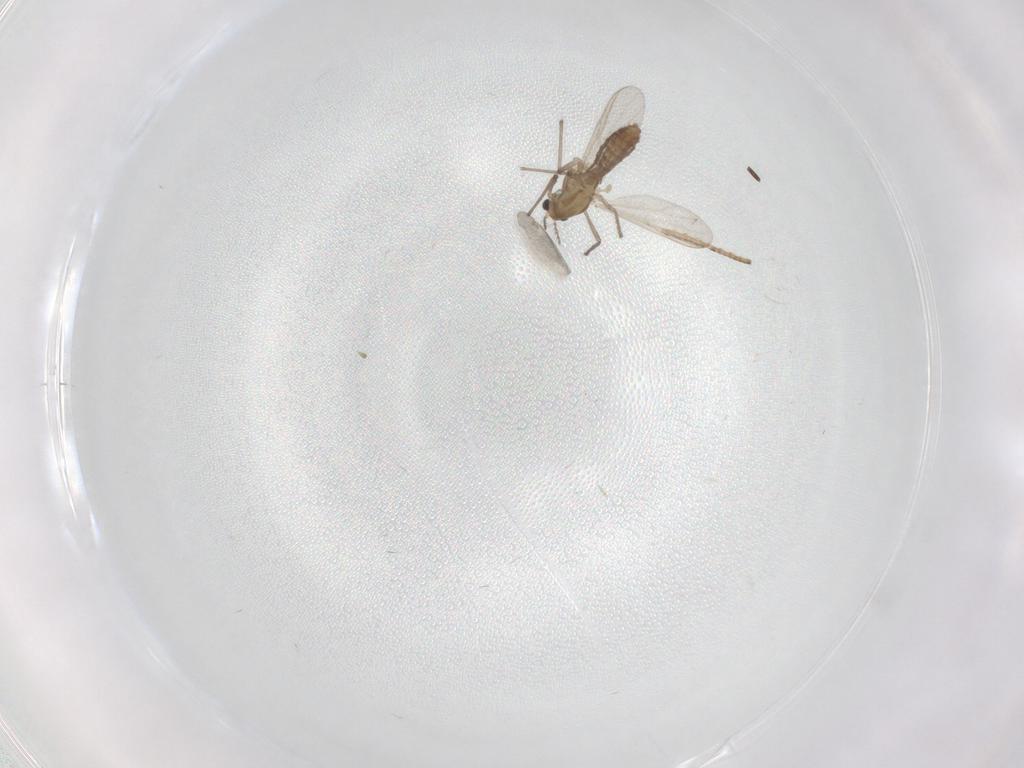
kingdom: Animalia
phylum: Arthropoda
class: Insecta
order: Diptera
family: Chironomidae
